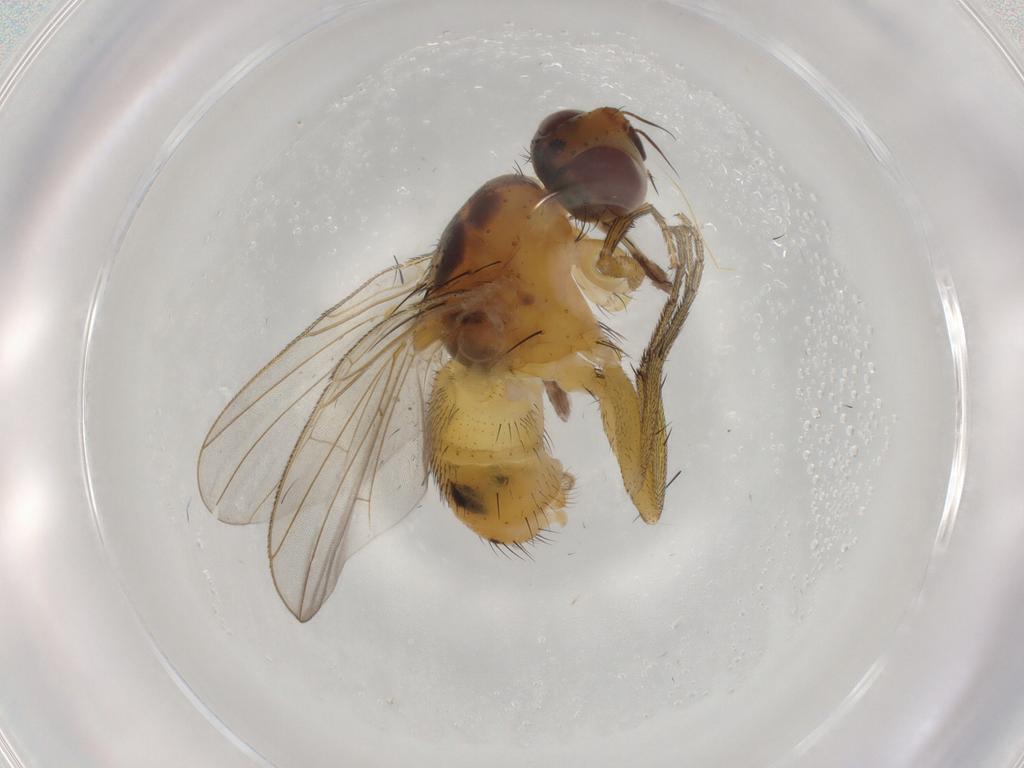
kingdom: Animalia
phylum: Arthropoda
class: Insecta
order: Diptera
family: Muscidae
